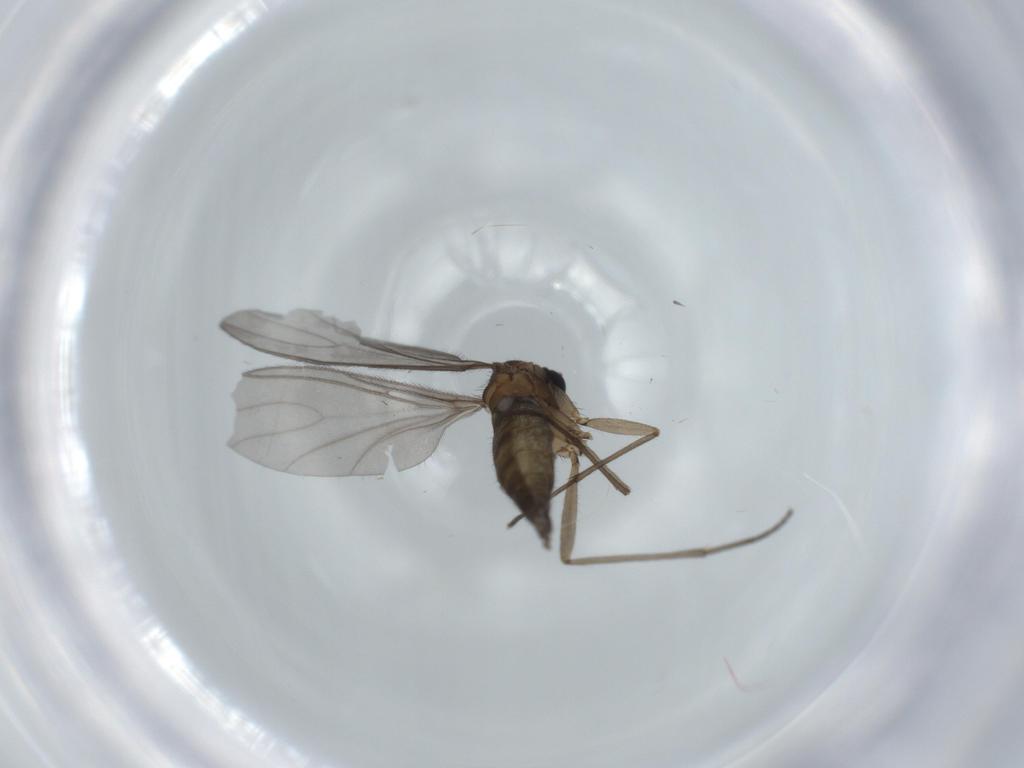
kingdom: Animalia
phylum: Arthropoda
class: Insecta
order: Diptera
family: Sciaridae
